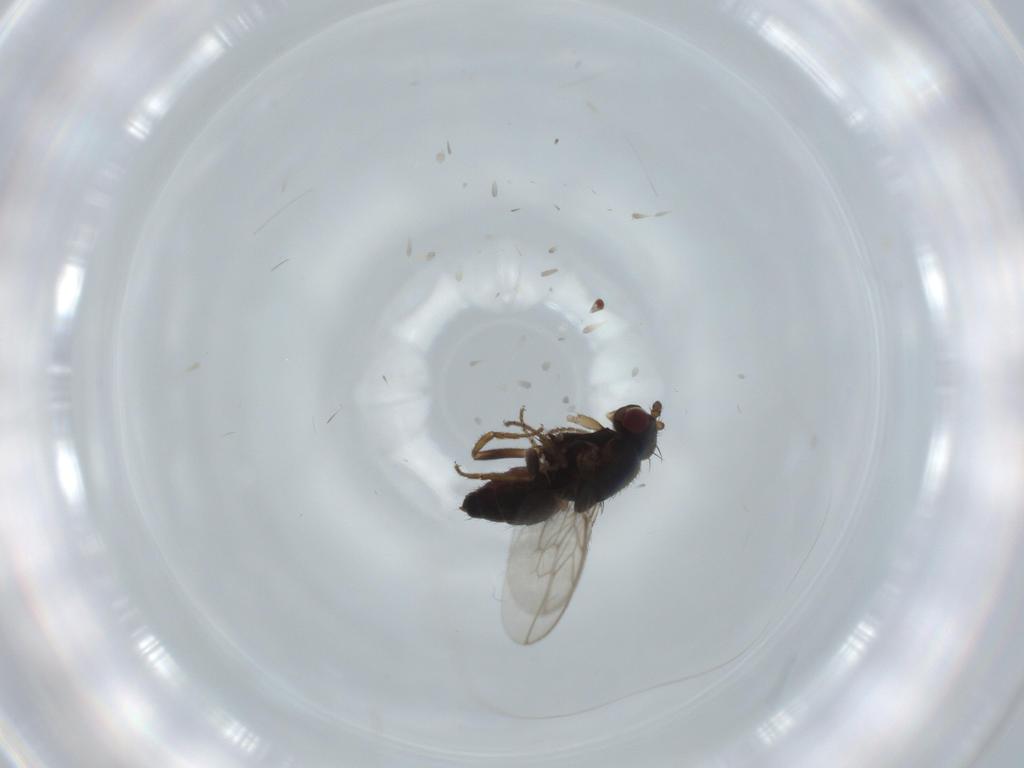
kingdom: Animalia
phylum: Arthropoda
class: Insecta
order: Diptera
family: Sphaeroceridae
